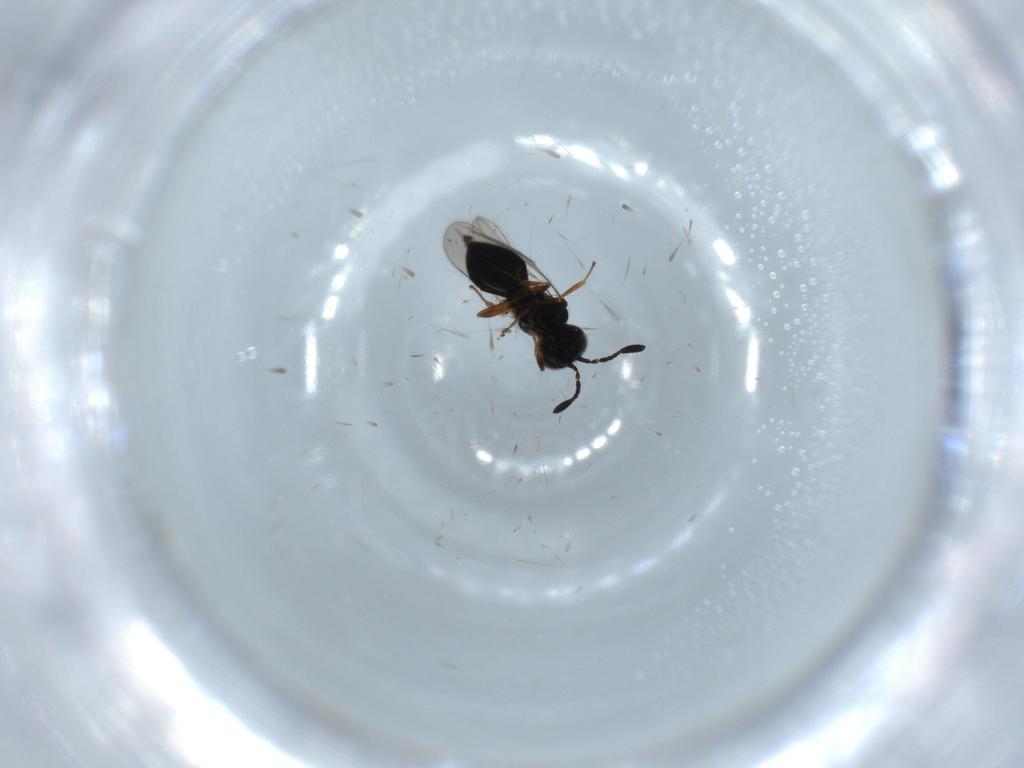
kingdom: Animalia
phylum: Arthropoda
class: Insecta
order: Hymenoptera
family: Scelionidae
